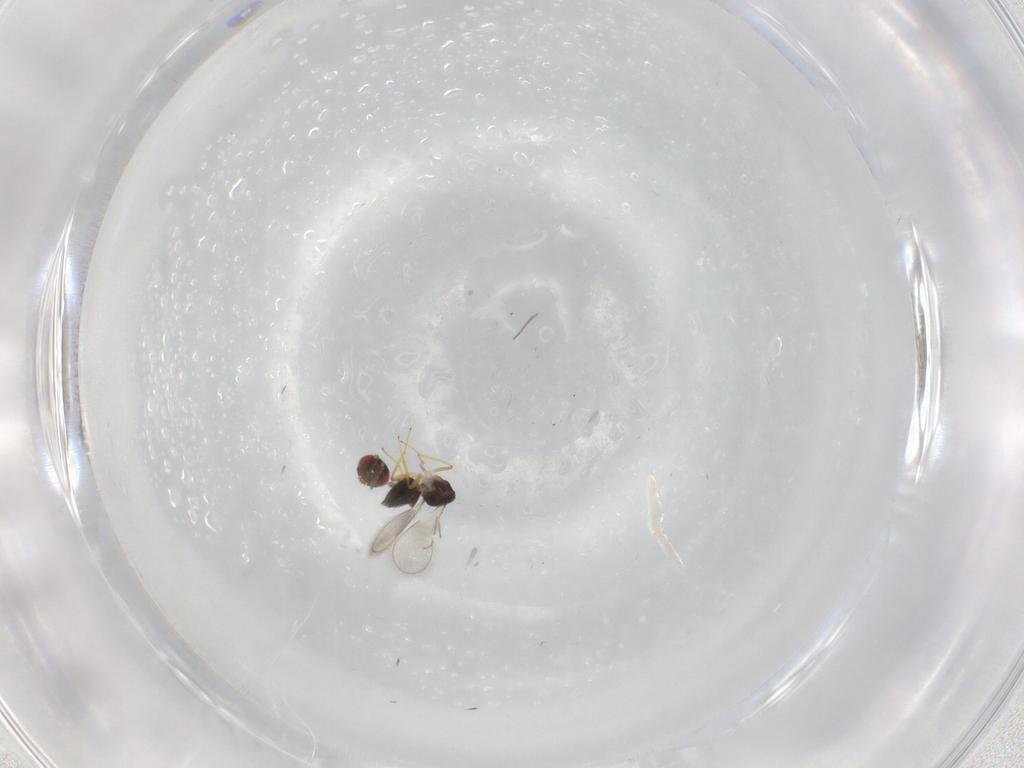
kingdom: Animalia
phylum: Arthropoda
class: Insecta
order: Hymenoptera
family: Eulophidae
